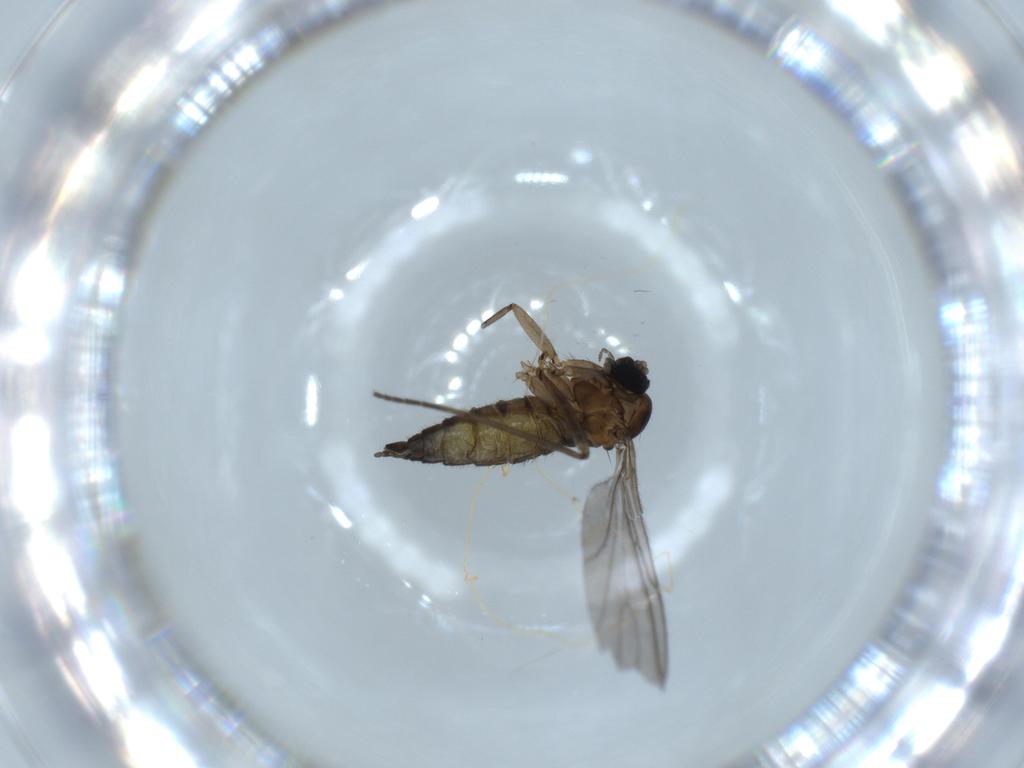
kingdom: Animalia
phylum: Arthropoda
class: Insecta
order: Diptera
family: Sciaridae
